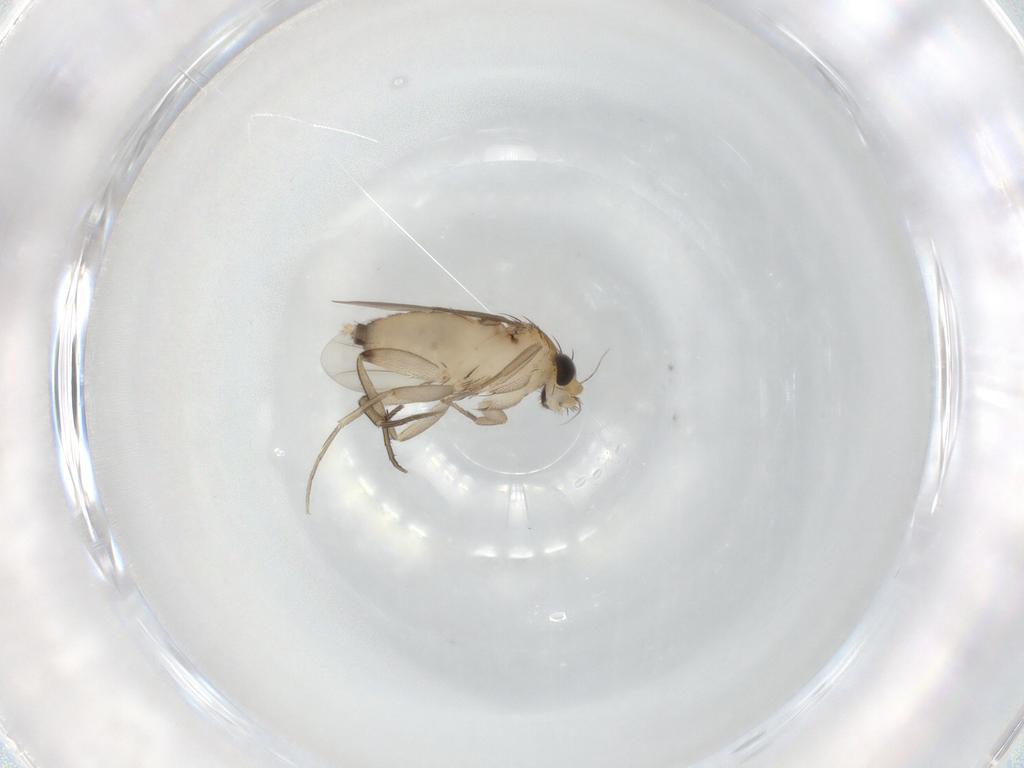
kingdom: Animalia
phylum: Arthropoda
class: Insecta
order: Diptera
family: Phoridae
